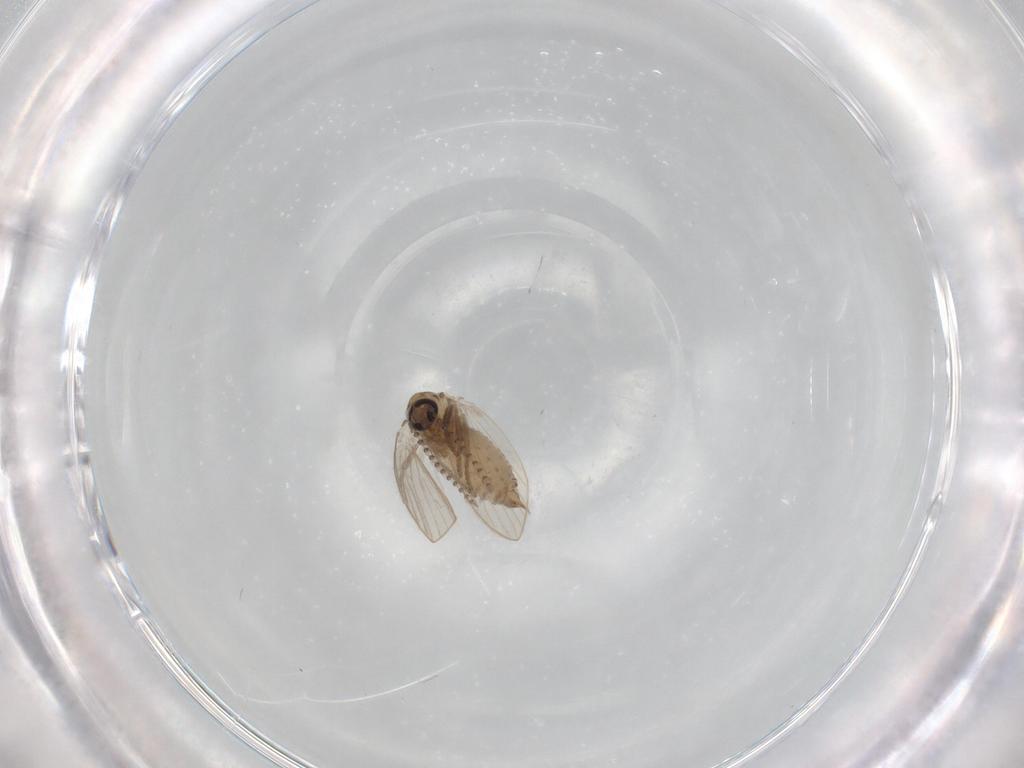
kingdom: Animalia
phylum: Arthropoda
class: Insecta
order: Diptera
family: Psychodidae
